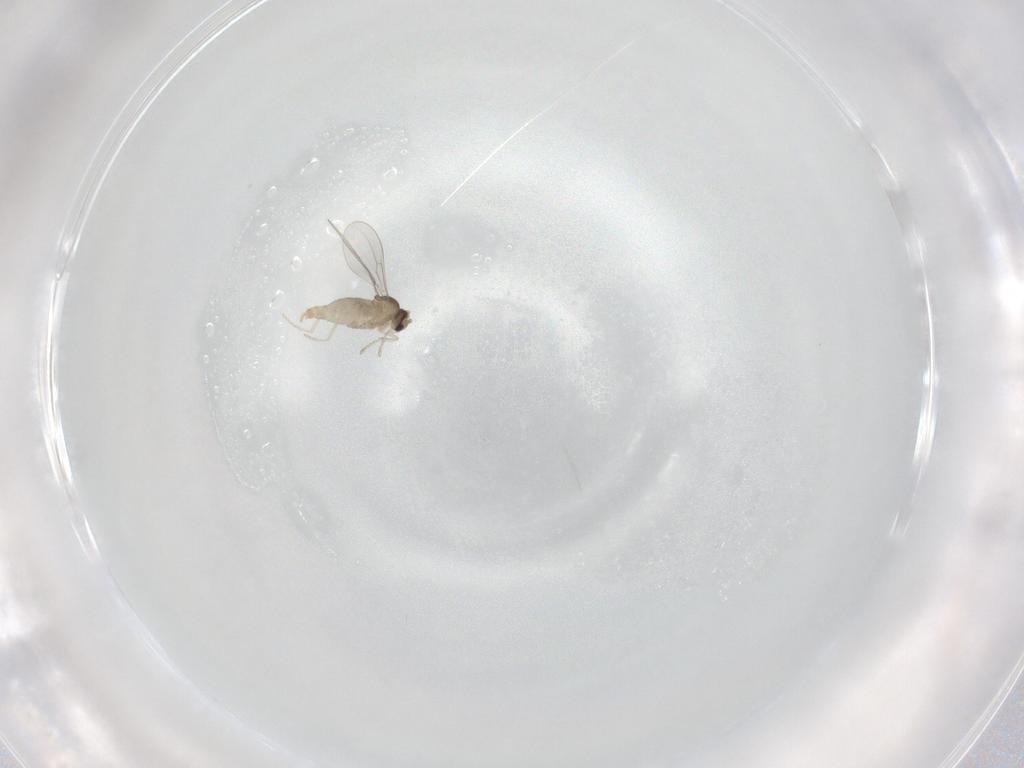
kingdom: Animalia
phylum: Arthropoda
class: Insecta
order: Diptera
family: Cecidomyiidae
